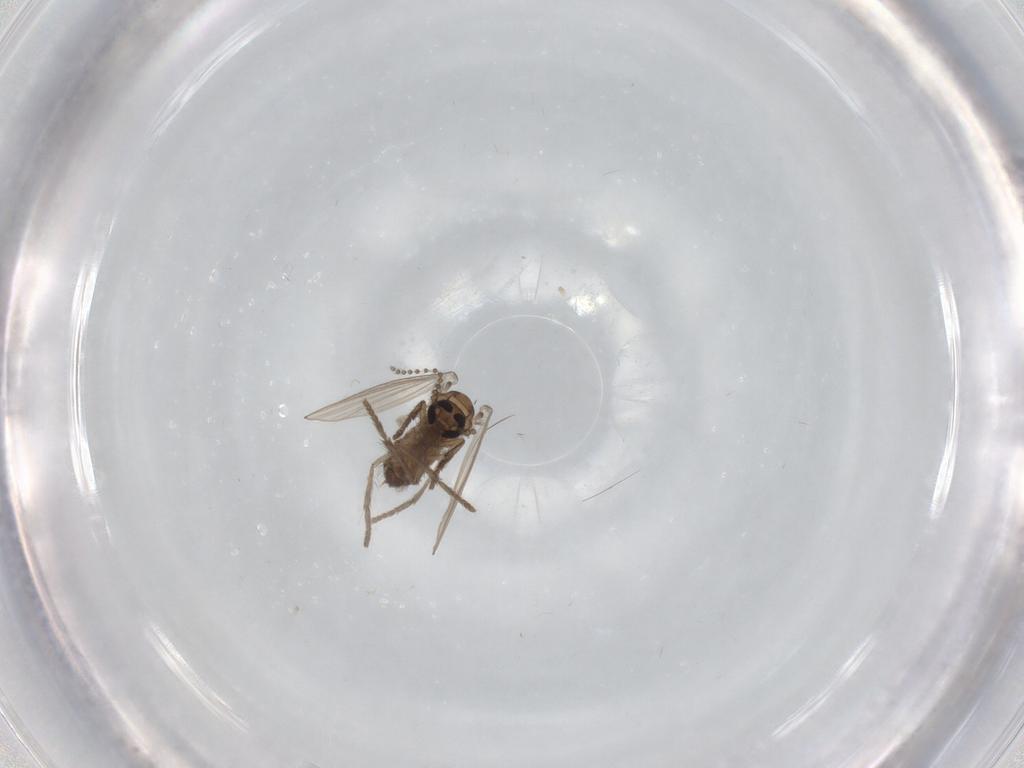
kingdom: Animalia
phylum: Arthropoda
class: Insecta
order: Diptera
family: Psychodidae
